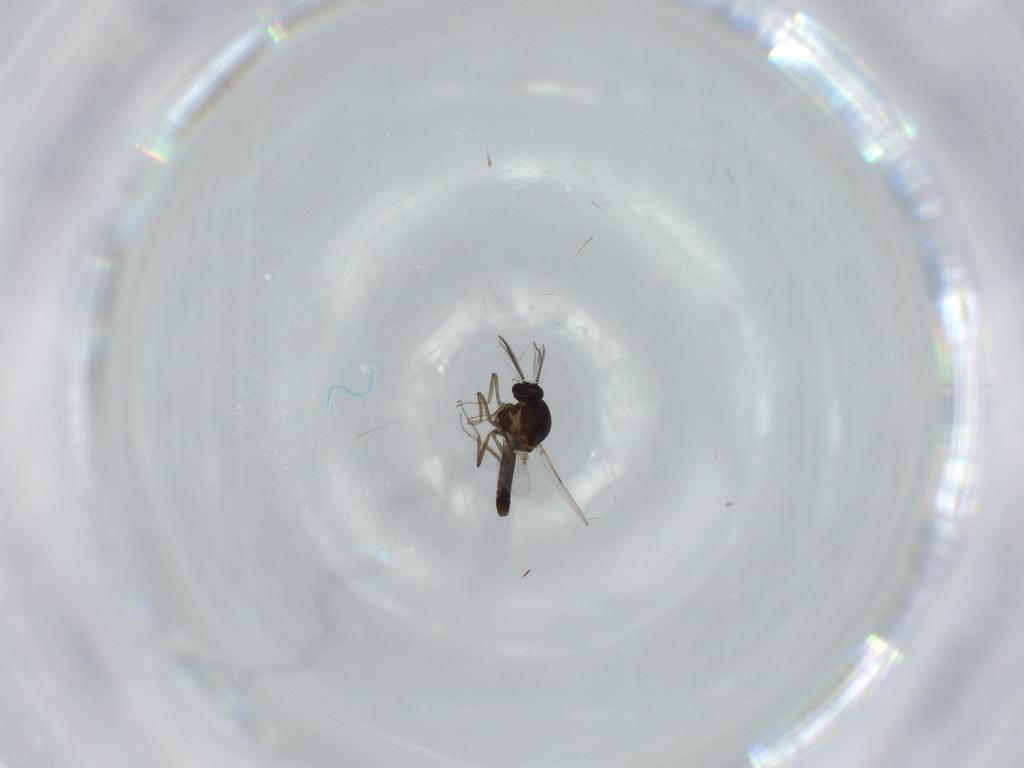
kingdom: Animalia
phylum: Arthropoda
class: Insecta
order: Diptera
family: Ceratopogonidae
